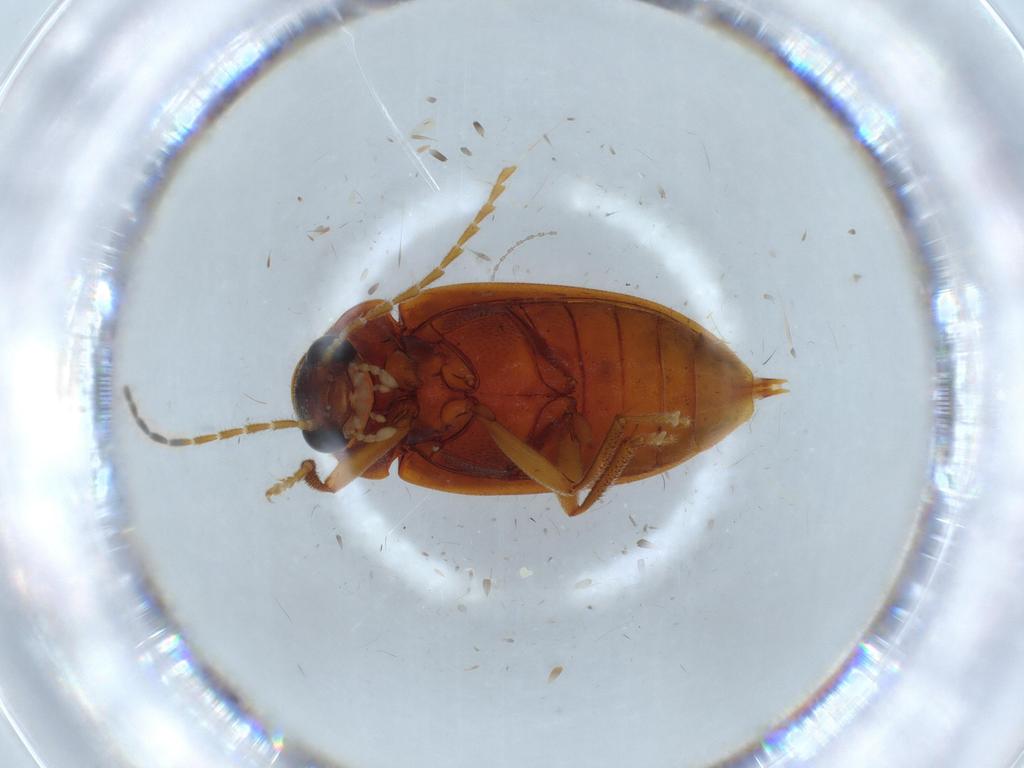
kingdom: Animalia
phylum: Arthropoda
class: Insecta
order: Coleoptera
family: Ptilodactylidae
